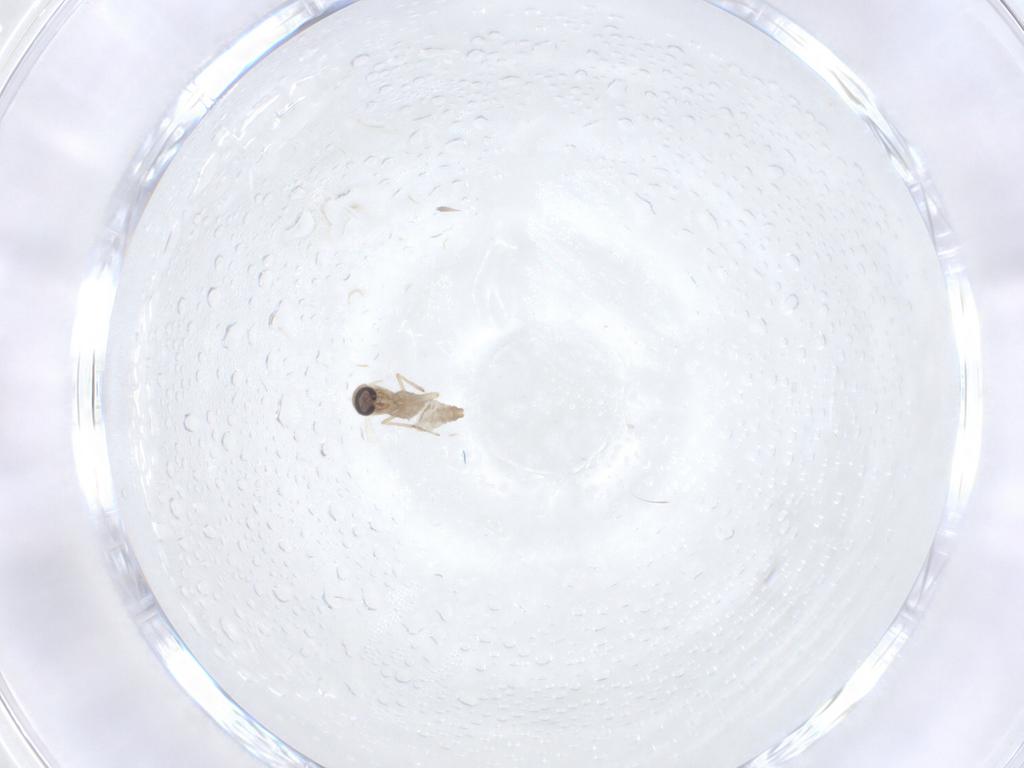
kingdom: Animalia
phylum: Arthropoda
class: Insecta
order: Diptera
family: Ceratopogonidae
